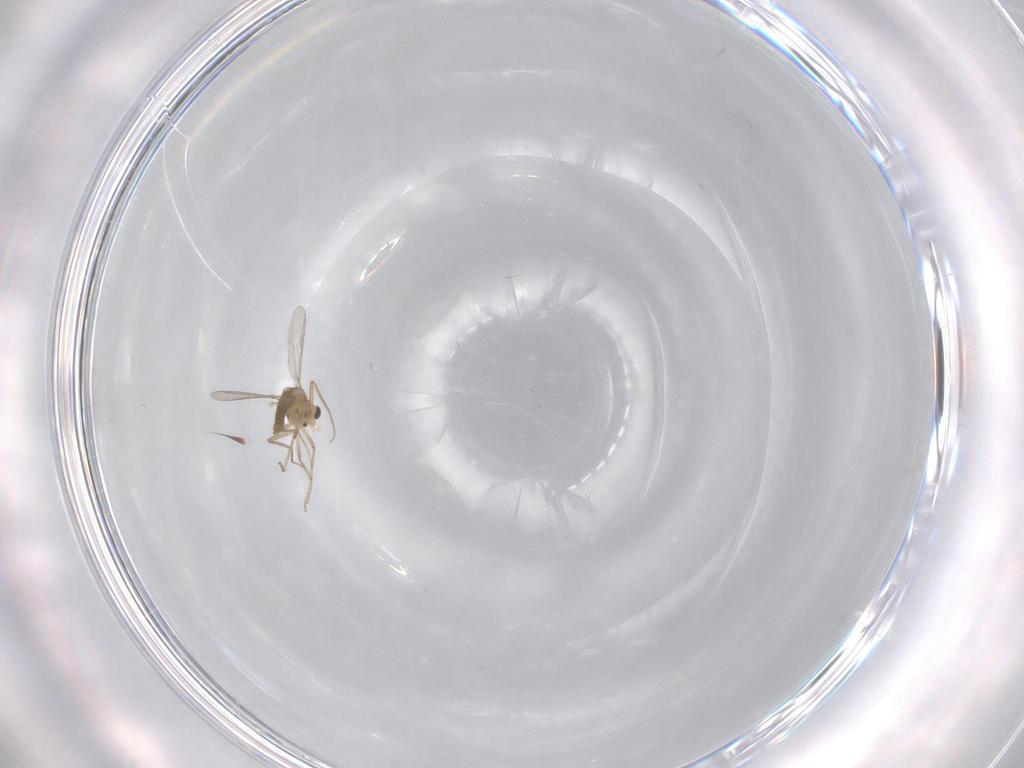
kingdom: Animalia
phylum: Arthropoda
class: Insecta
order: Diptera
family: Chironomidae
